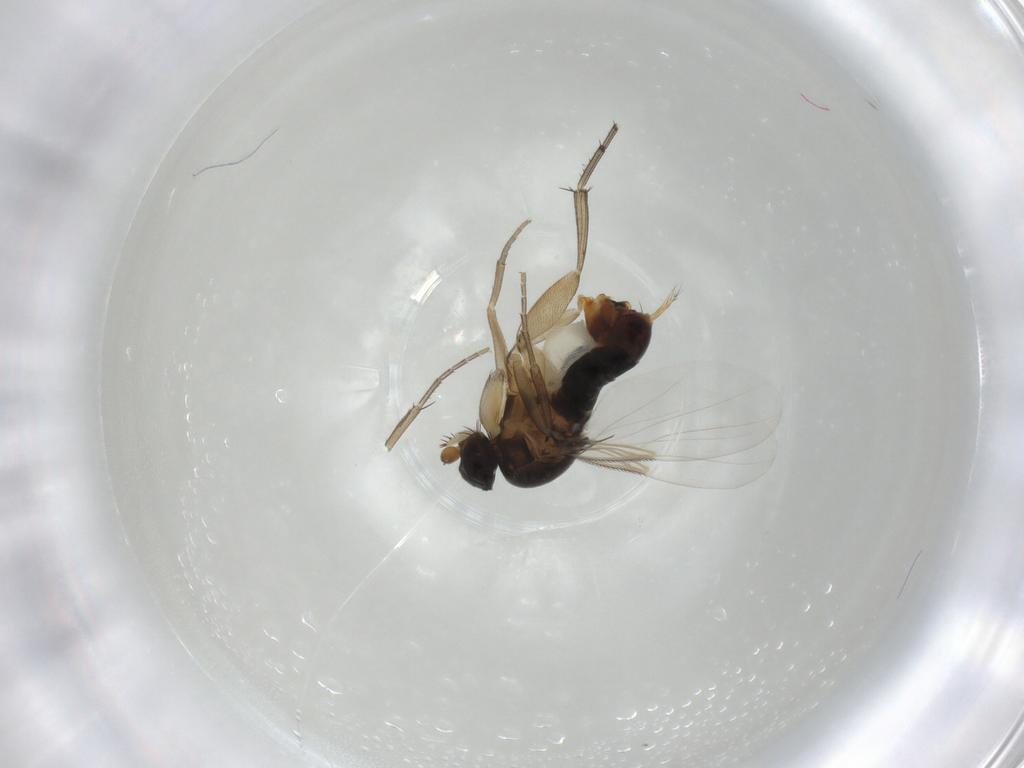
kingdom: Animalia
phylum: Arthropoda
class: Insecta
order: Diptera
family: Phoridae
